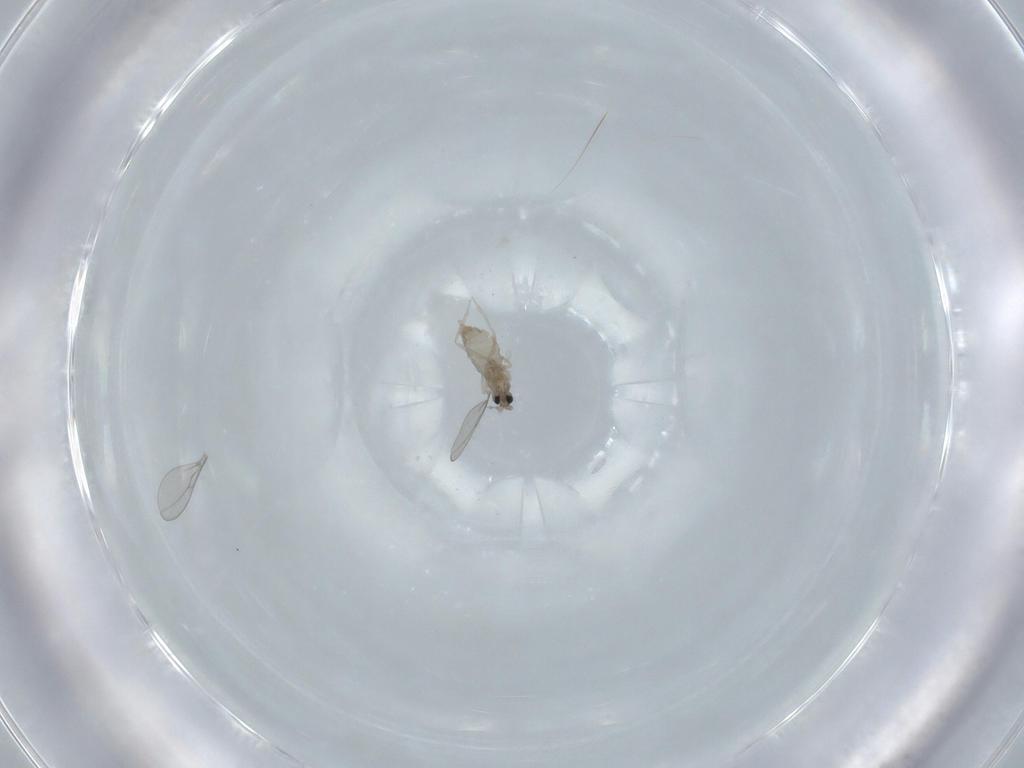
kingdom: Animalia
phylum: Arthropoda
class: Insecta
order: Diptera
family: Cecidomyiidae
